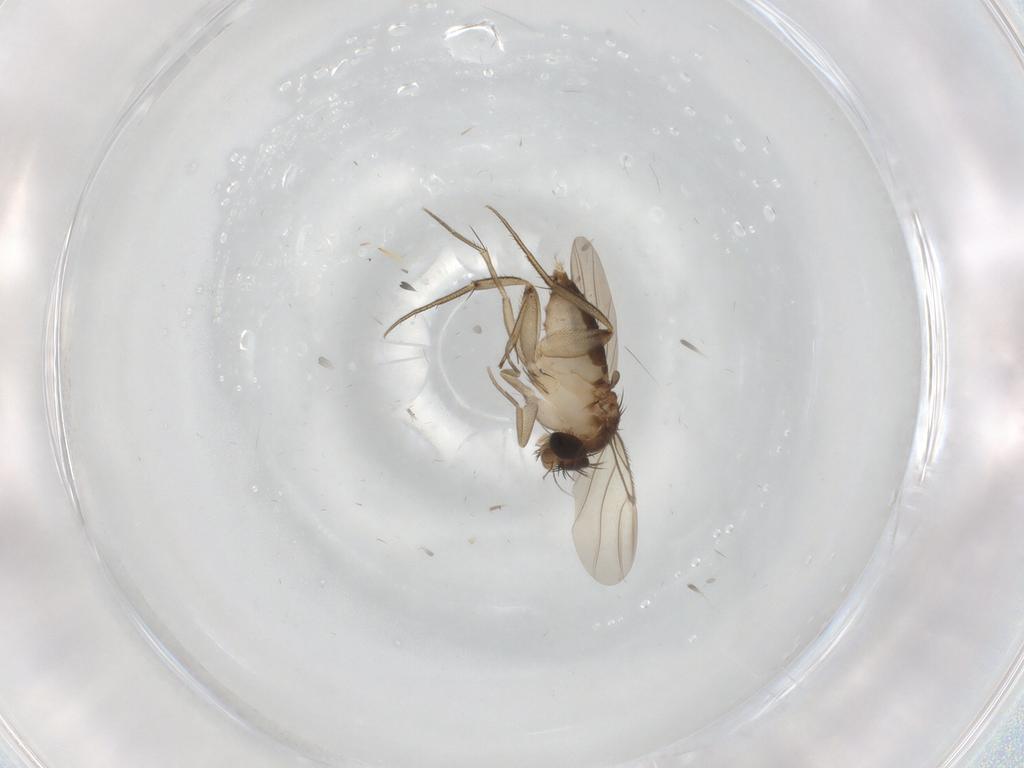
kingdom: Animalia
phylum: Arthropoda
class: Insecta
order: Diptera
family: Phoridae
